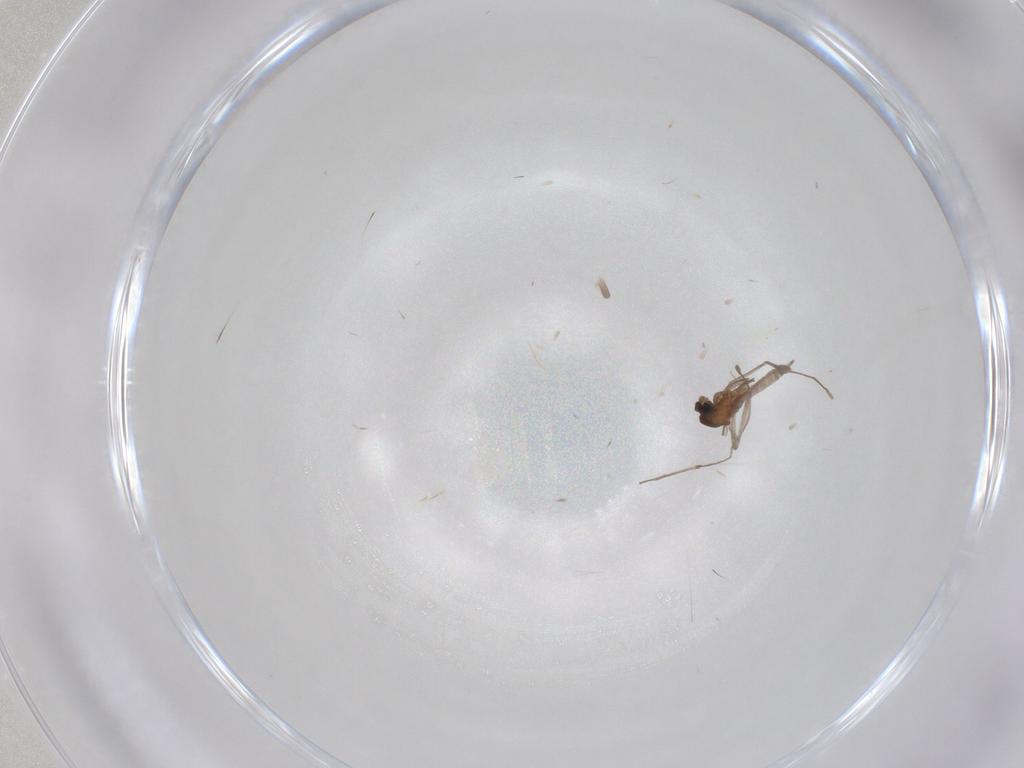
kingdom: Animalia
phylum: Arthropoda
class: Insecta
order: Diptera
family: Cecidomyiidae
